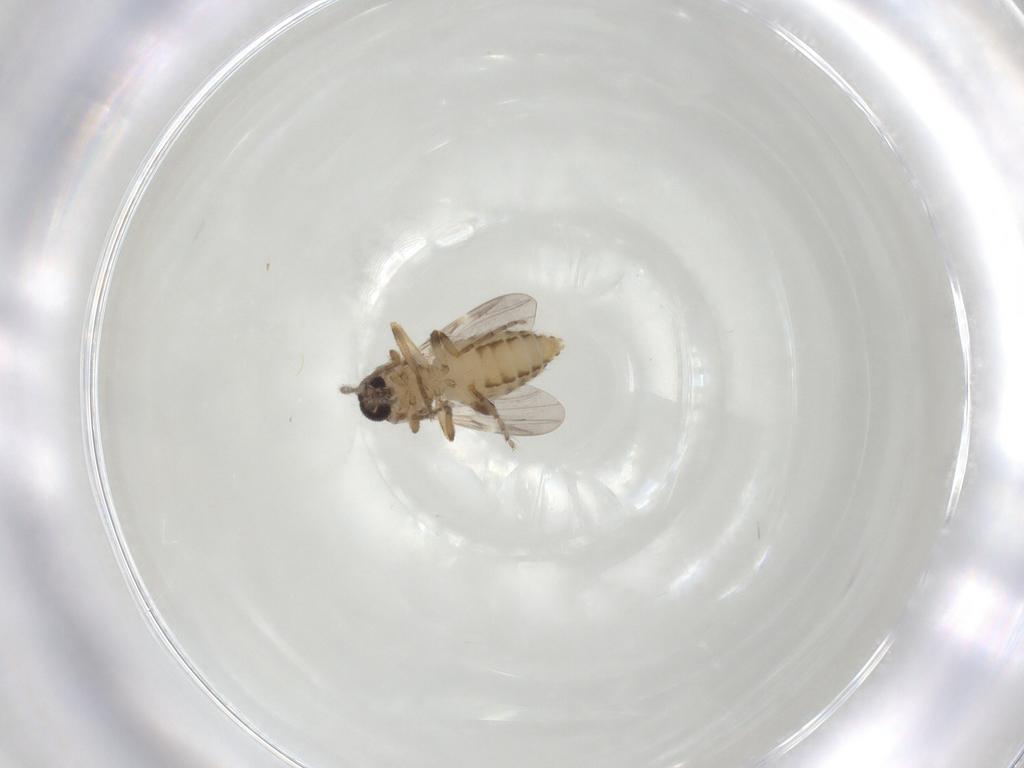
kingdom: Animalia
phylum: Arthropoda
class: Insecta
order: Diptera
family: Ceratopogonidae
